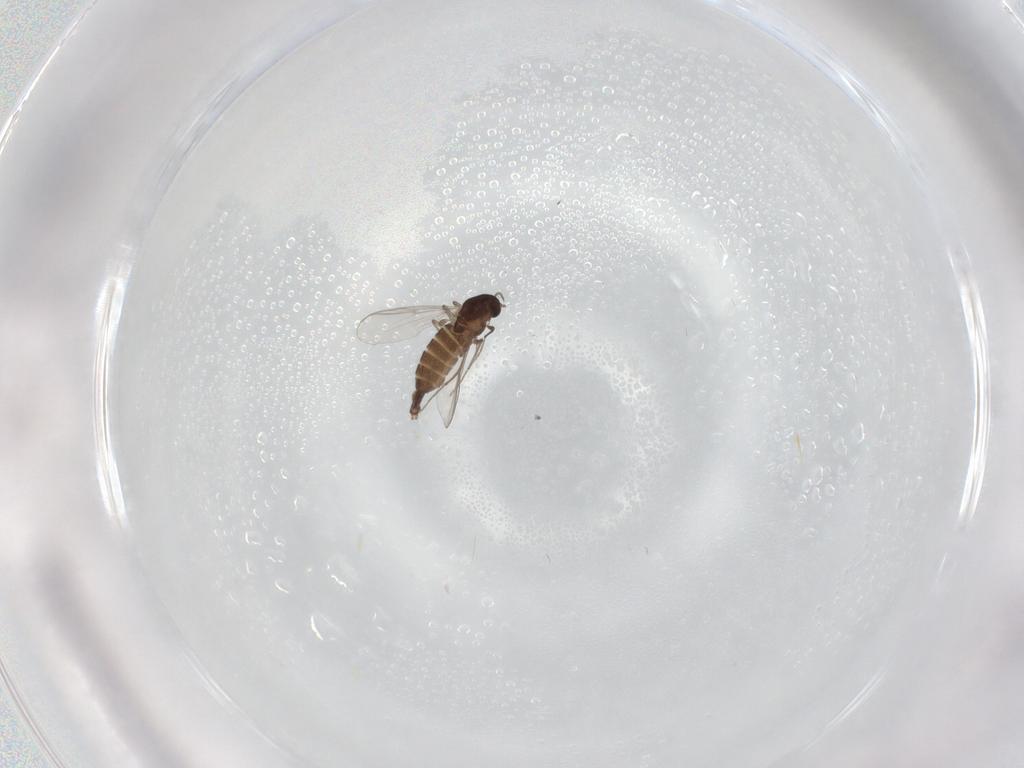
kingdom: Animalia
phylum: Arthropoda
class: Insecta
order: Diptera
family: Chironomidae
